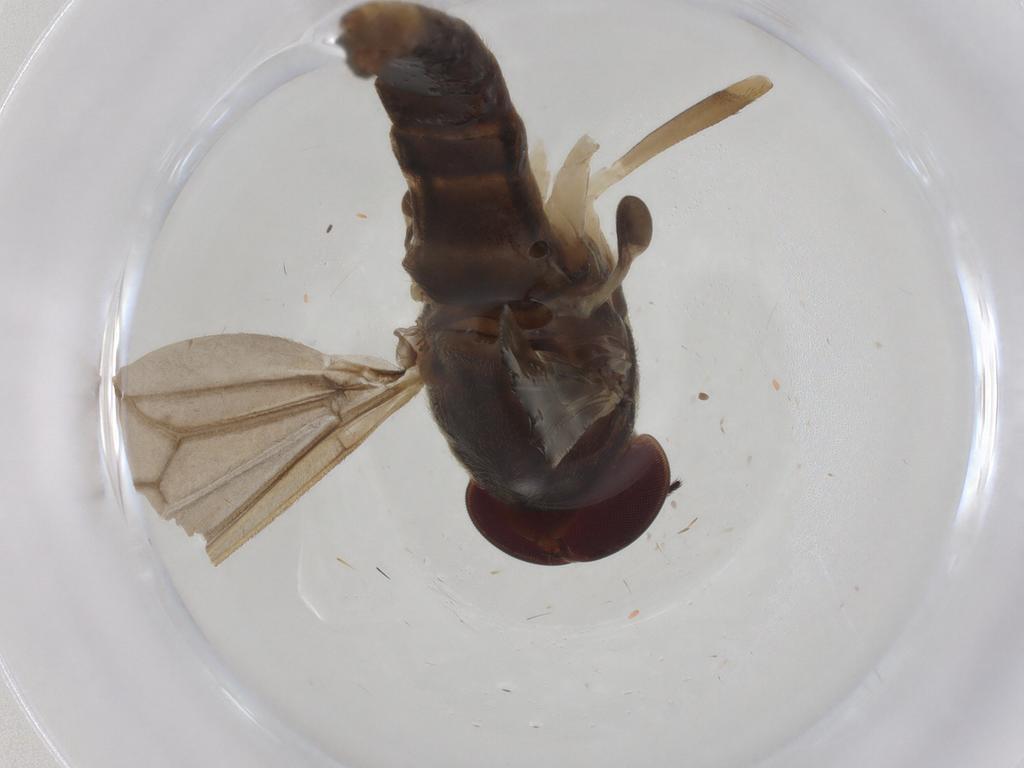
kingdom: Animalia
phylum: Arthropoda
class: Insecta
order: Diptera
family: Stratiomyidae
